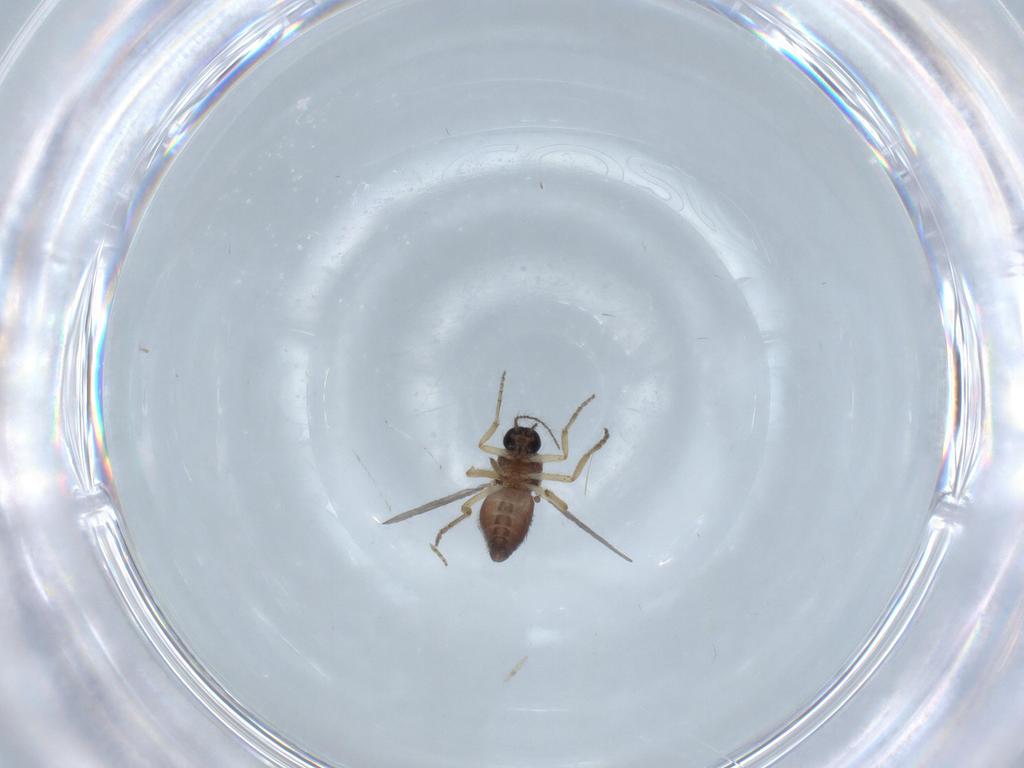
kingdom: Animalia
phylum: Arthropoda
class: Insecta
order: Diptera
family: Ceratopogonidae
